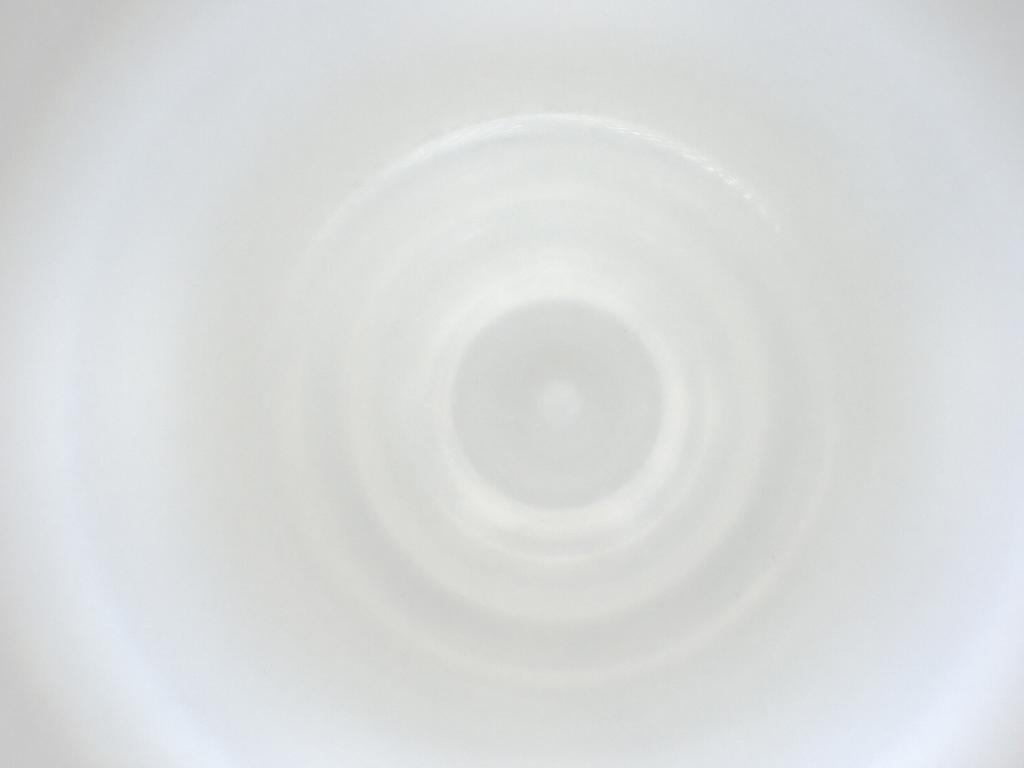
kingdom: Animalia
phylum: Arthropoda
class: Insecta
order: Diptera
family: Cecidomyiidae
